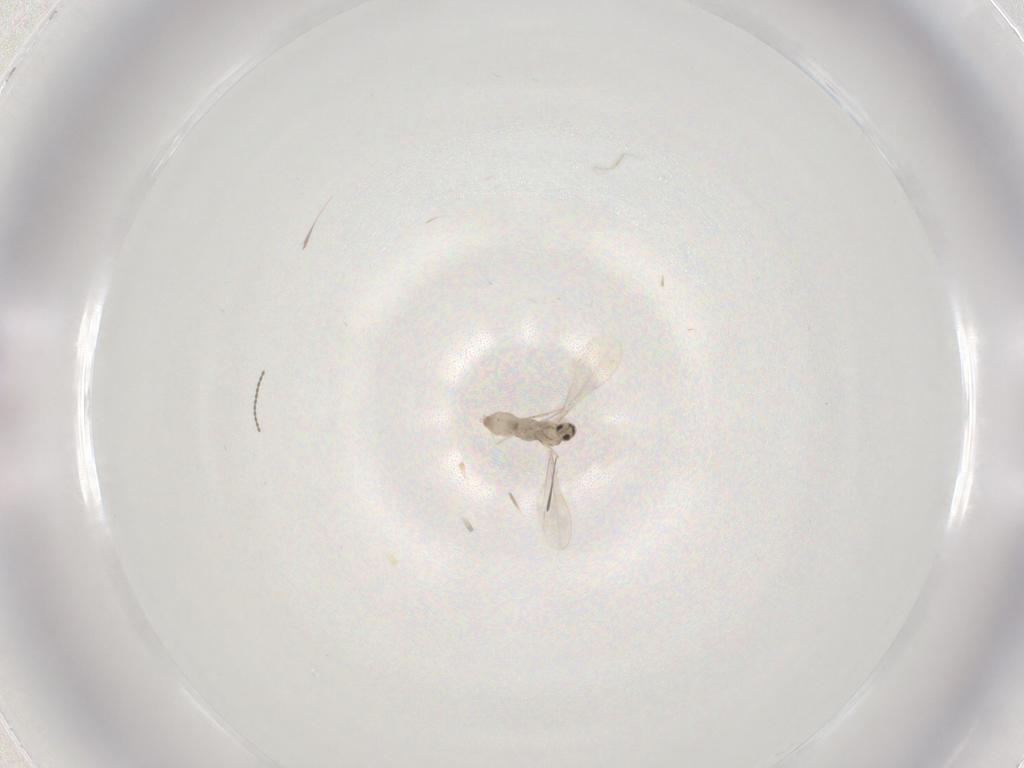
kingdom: Animalia
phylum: Arthropoda
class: Insecta
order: Diptera
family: Cecidomyiidae
